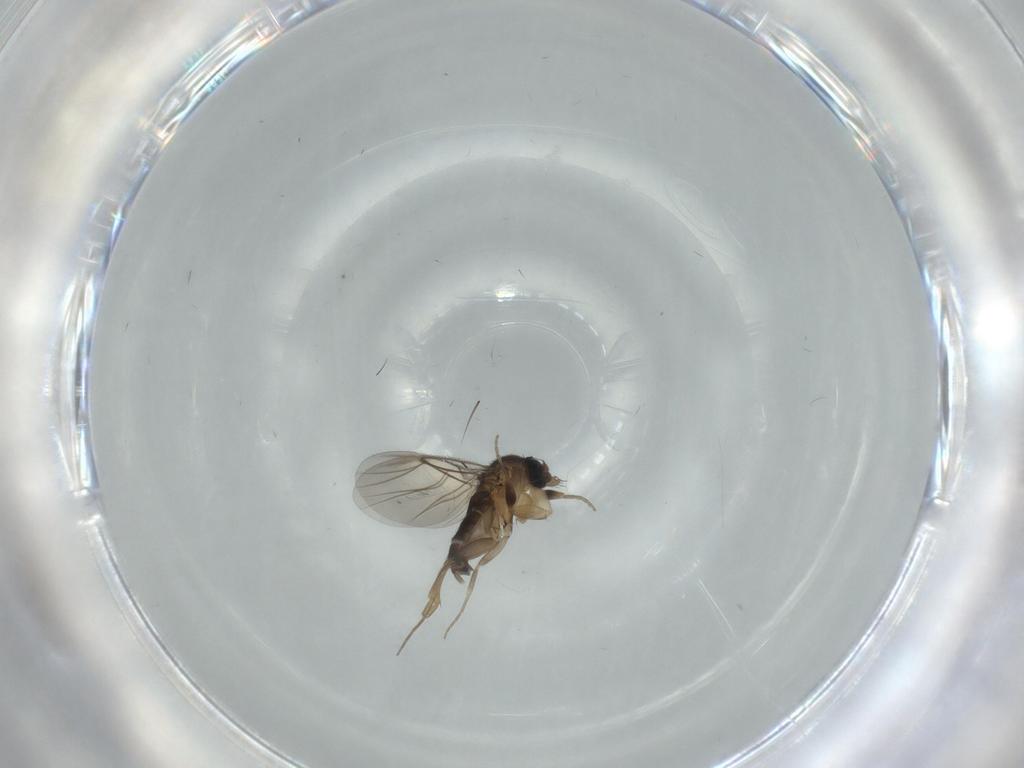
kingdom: Animalia
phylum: Arthropoda
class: Insecta
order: Diptera
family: Phoridae
